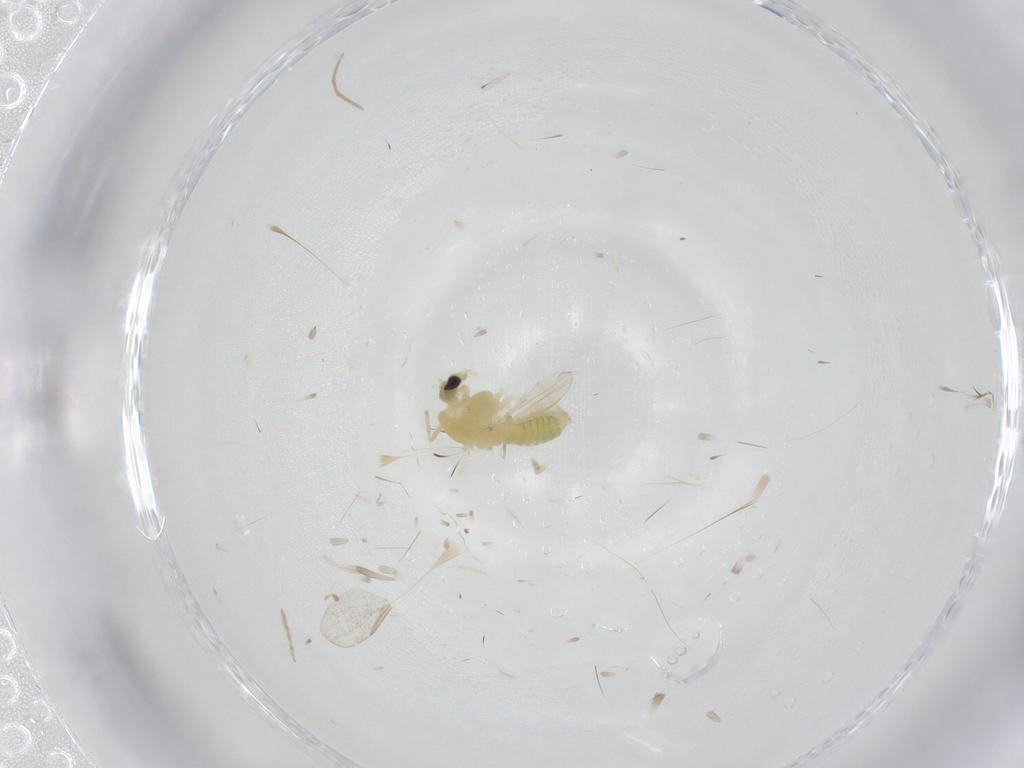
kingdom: Animalia
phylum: Arthropoda
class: Insecta
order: Diptera
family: Chironomidae
